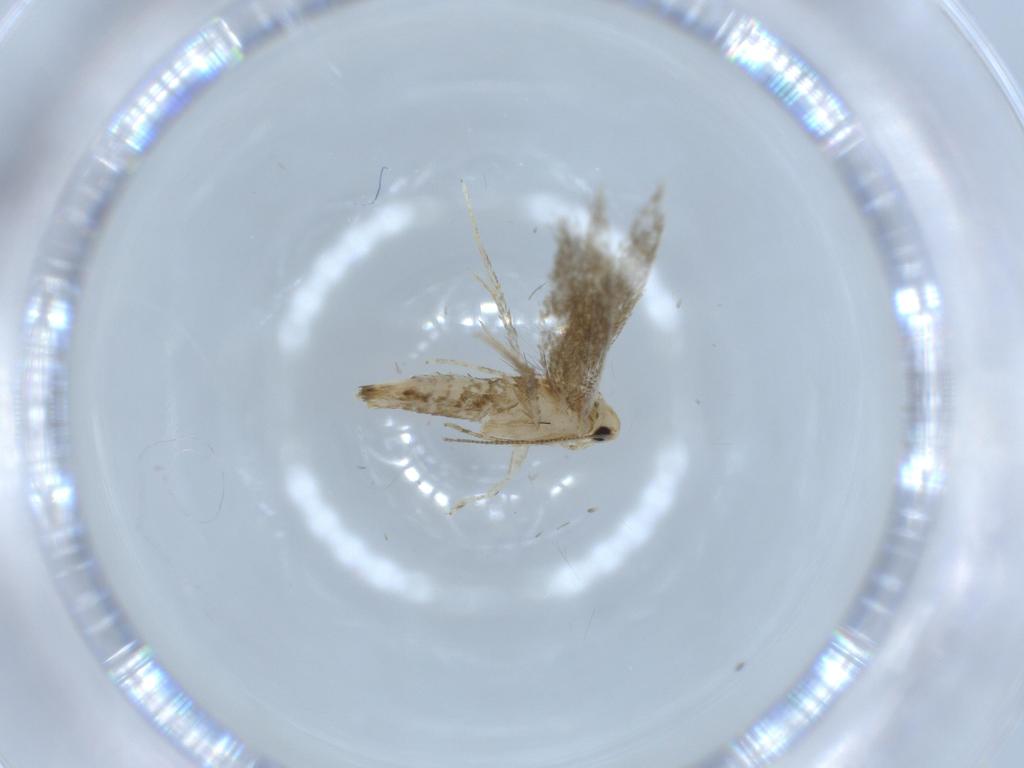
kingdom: Animalia
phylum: Arthropoda
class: Insecta
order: Lepidoptera
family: Tineidae
